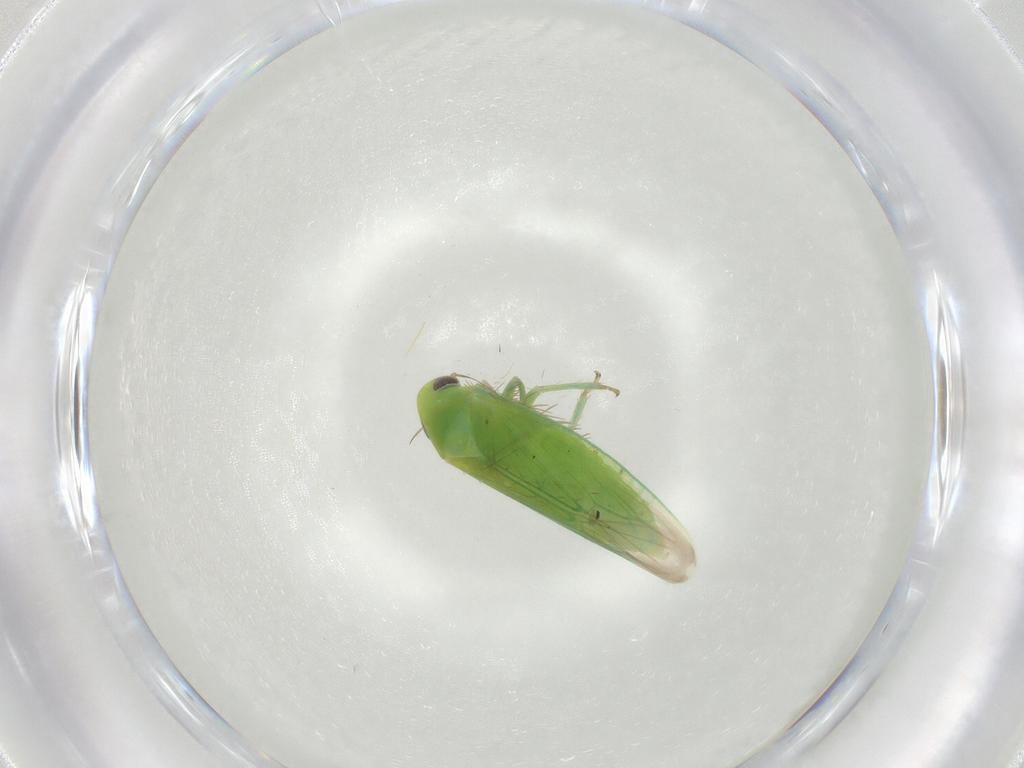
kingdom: Animalia
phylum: Arthropoda
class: Insecta
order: Hemiptera
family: Cicadellidae
